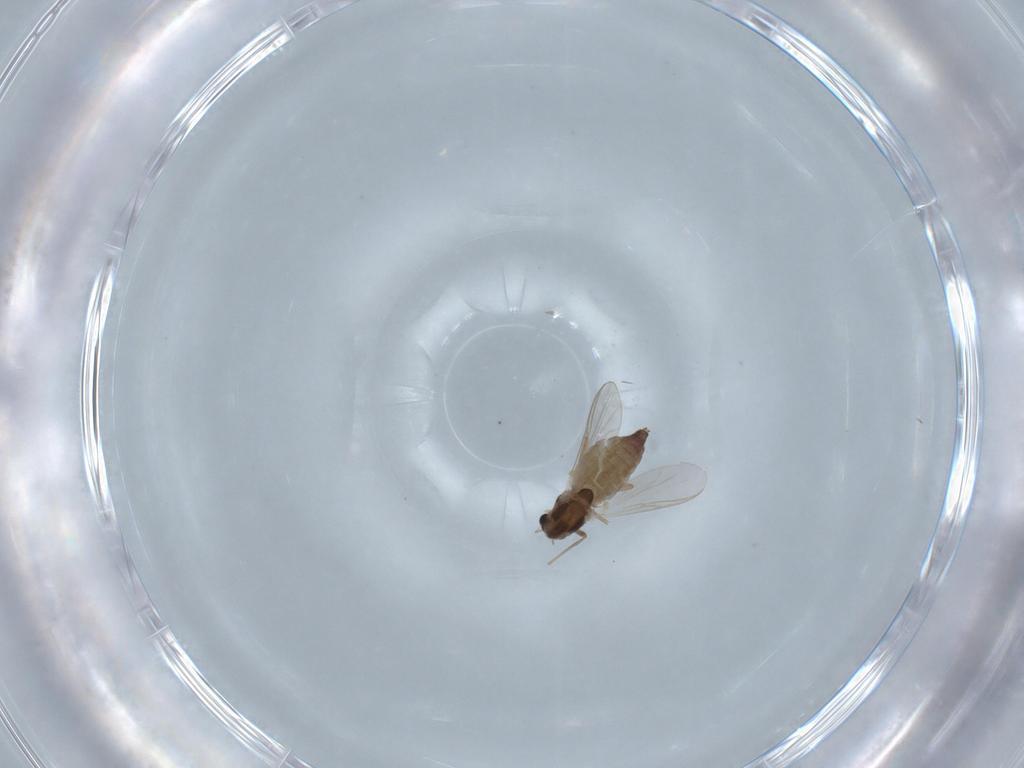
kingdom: Animalia
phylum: Arthropoda
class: Insecta
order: Diptera
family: Chironomidae
